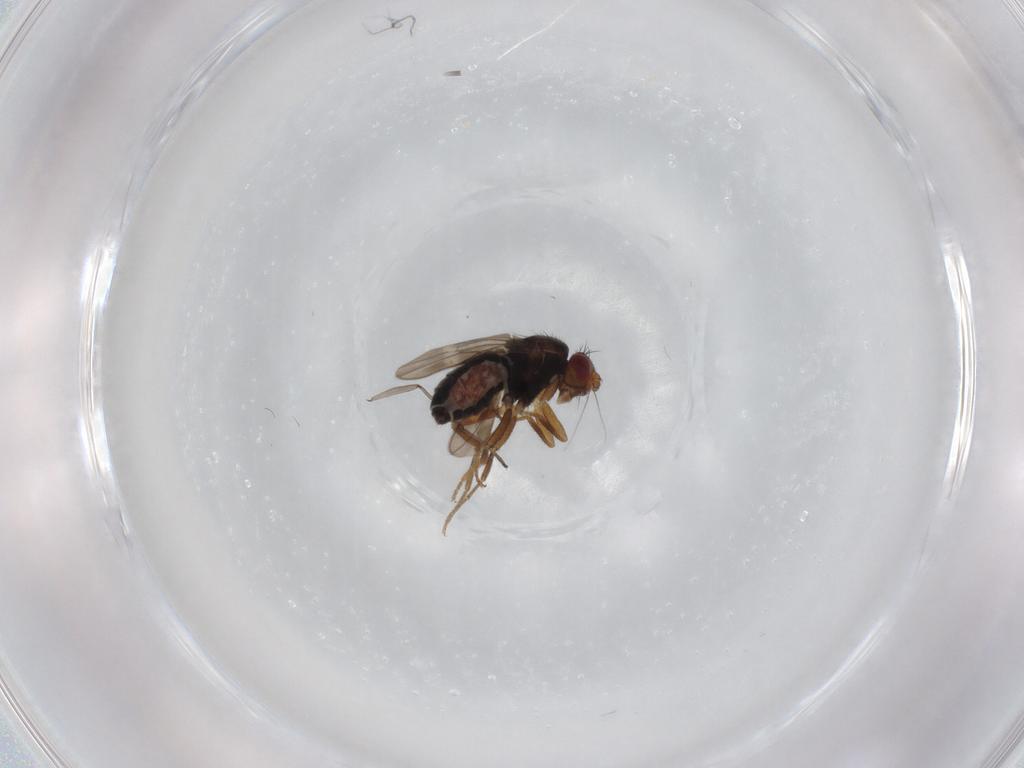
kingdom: Animalia
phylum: Arthropoda
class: Insecta
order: Diptera
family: Sphaeroceridae
